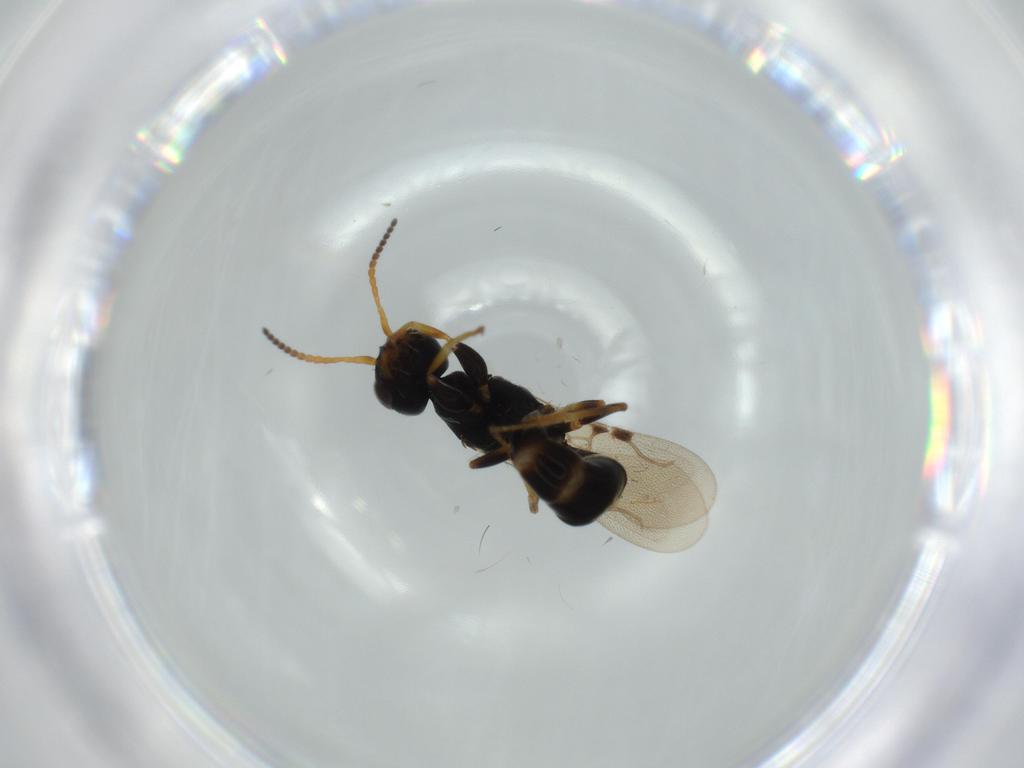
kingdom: Animalia
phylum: Arthropoda
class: Insecta
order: Hymenoptera
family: Bethylidae
